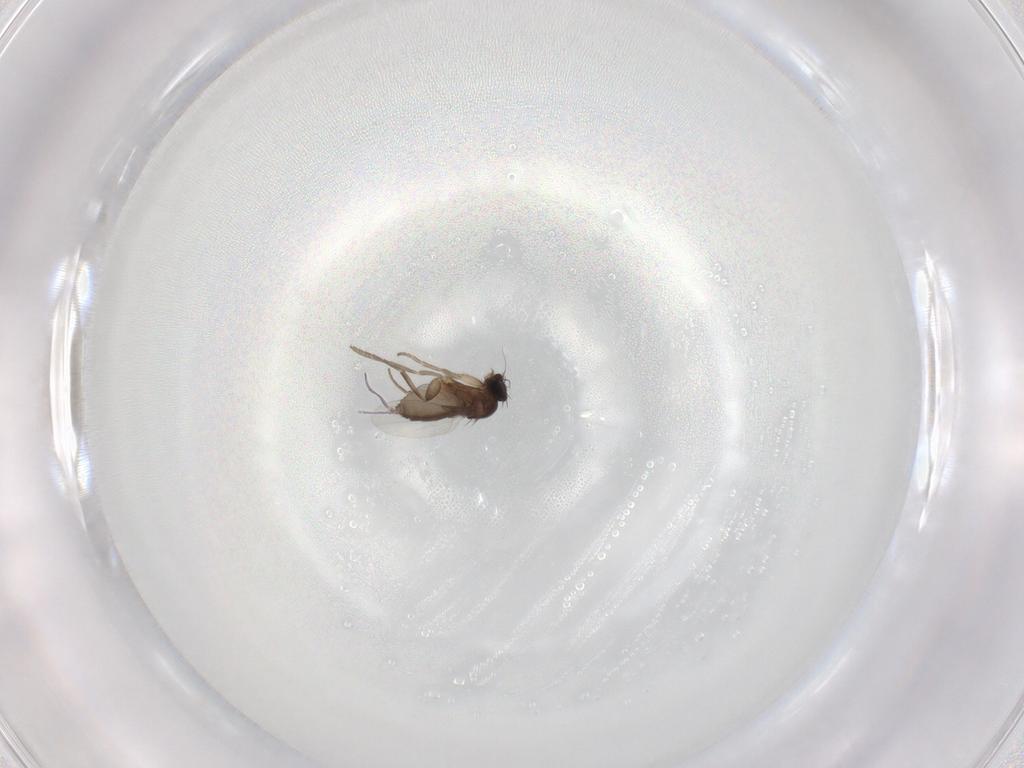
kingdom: Animalia
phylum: Arthropoda
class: Insecta
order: Diptera
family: Phoridae
